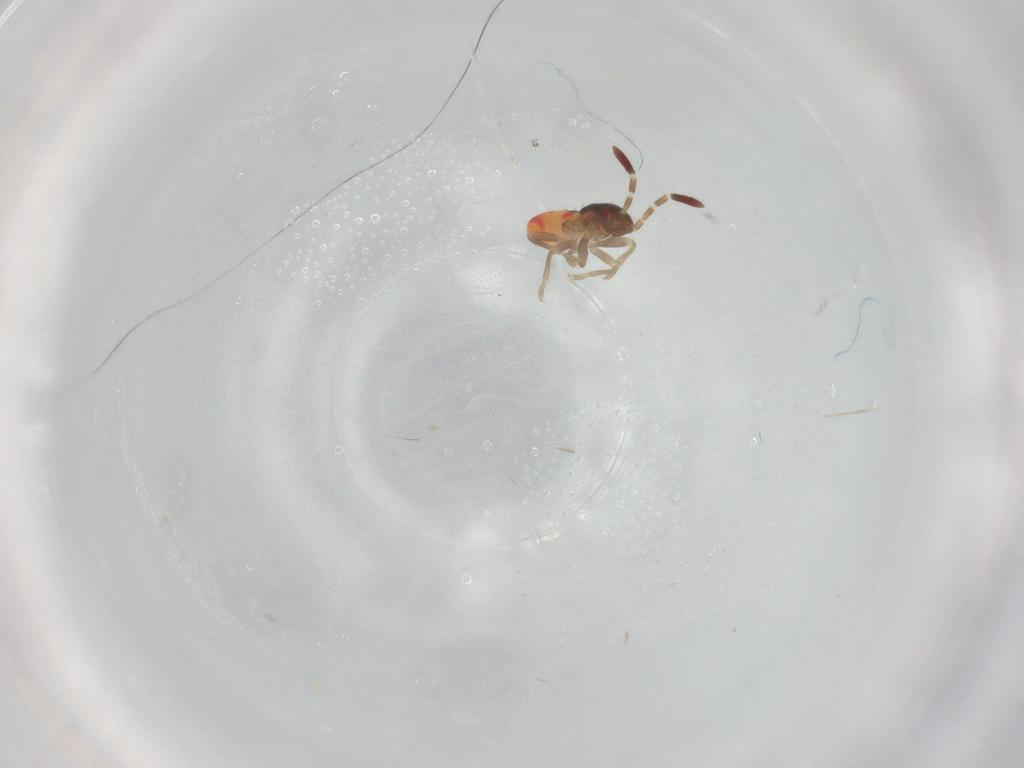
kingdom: Animalia
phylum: Arthropoda
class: Insecta
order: Hemiptera
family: Rhyparochromidae
